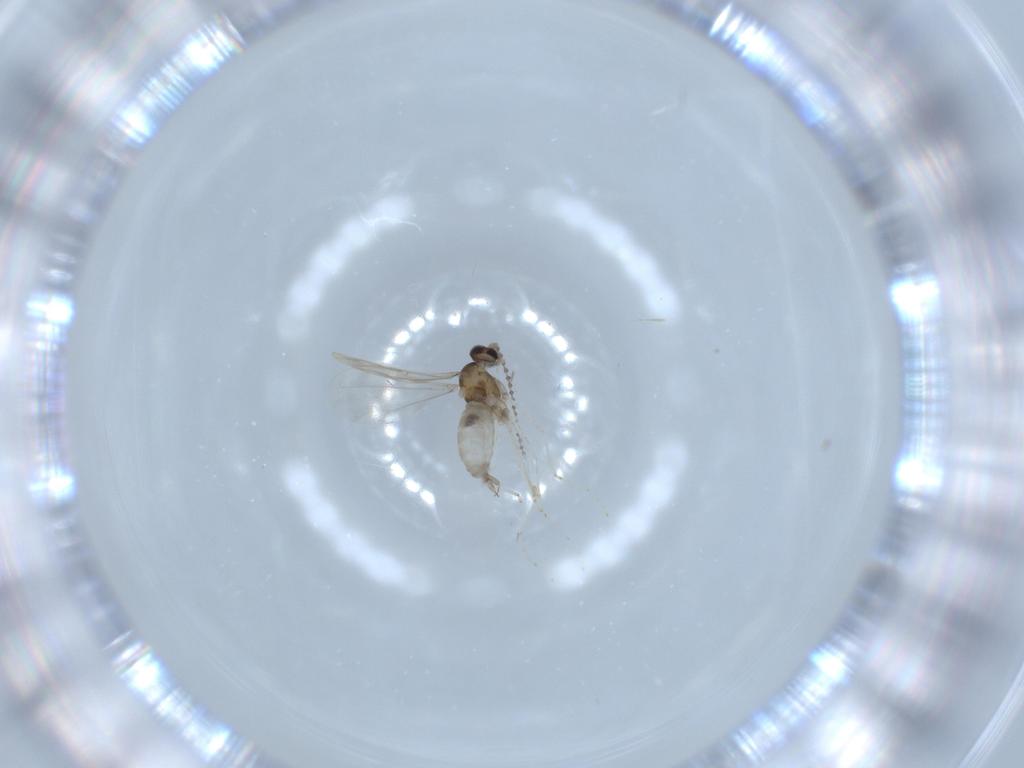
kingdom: Animalia
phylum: Arthropoda
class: Insecta
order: Diptera
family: Cecidomyiidae
